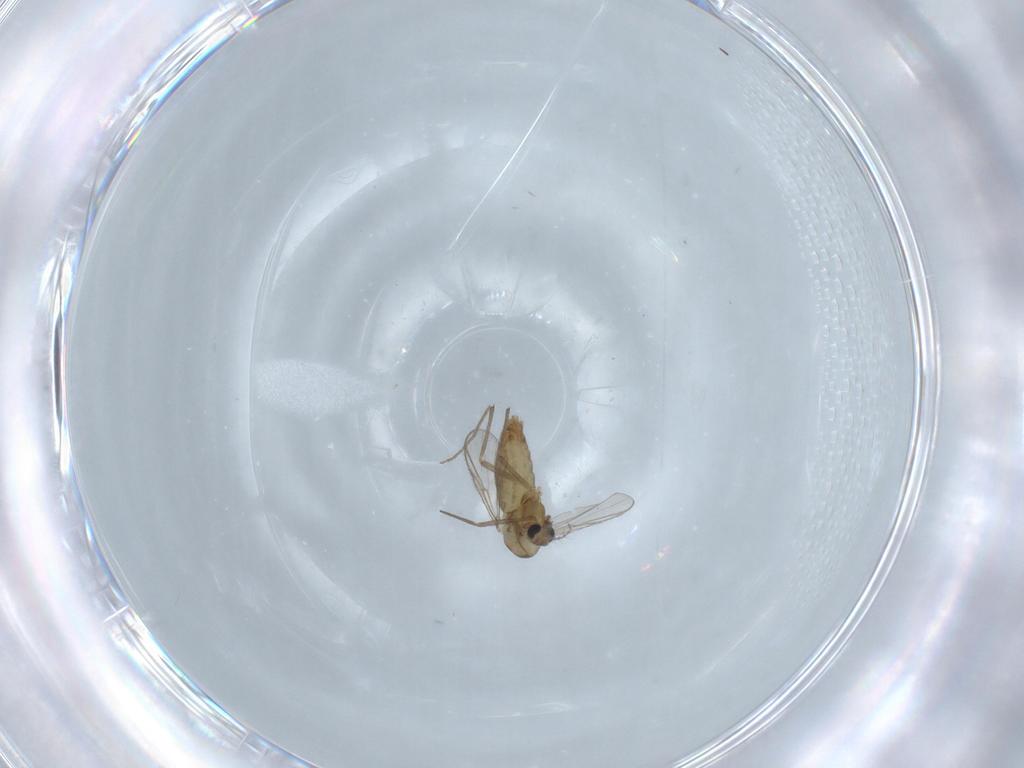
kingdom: Animalia
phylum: Arthropoda
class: Insecta
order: Diptera
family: Chironomidae
